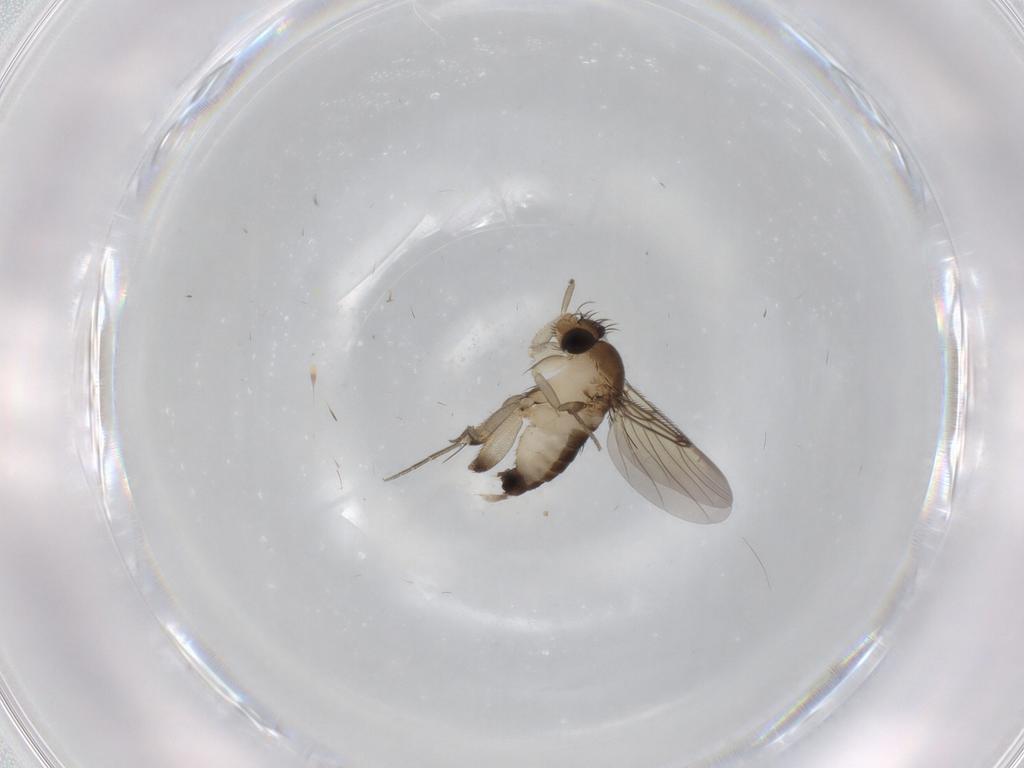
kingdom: Animalia
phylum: Arthropoda
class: Insecta
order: Diptera
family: Phoridae
